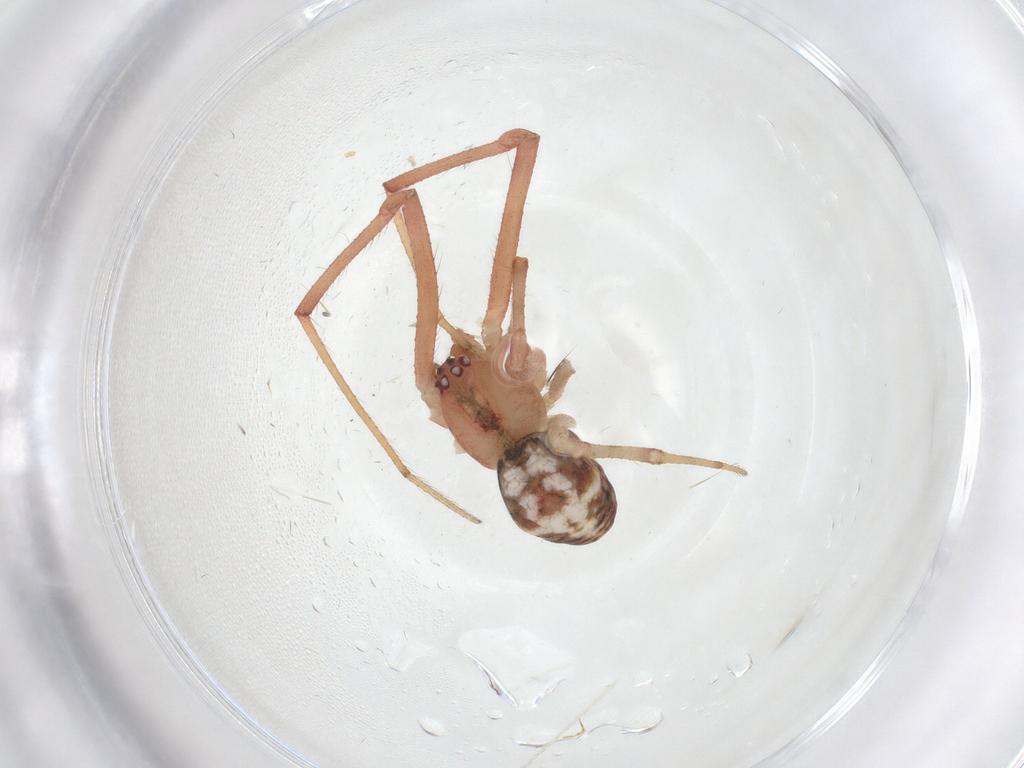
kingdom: Animalia
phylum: Arthropoda
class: Arachnida
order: Araneae
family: Theridiidae
